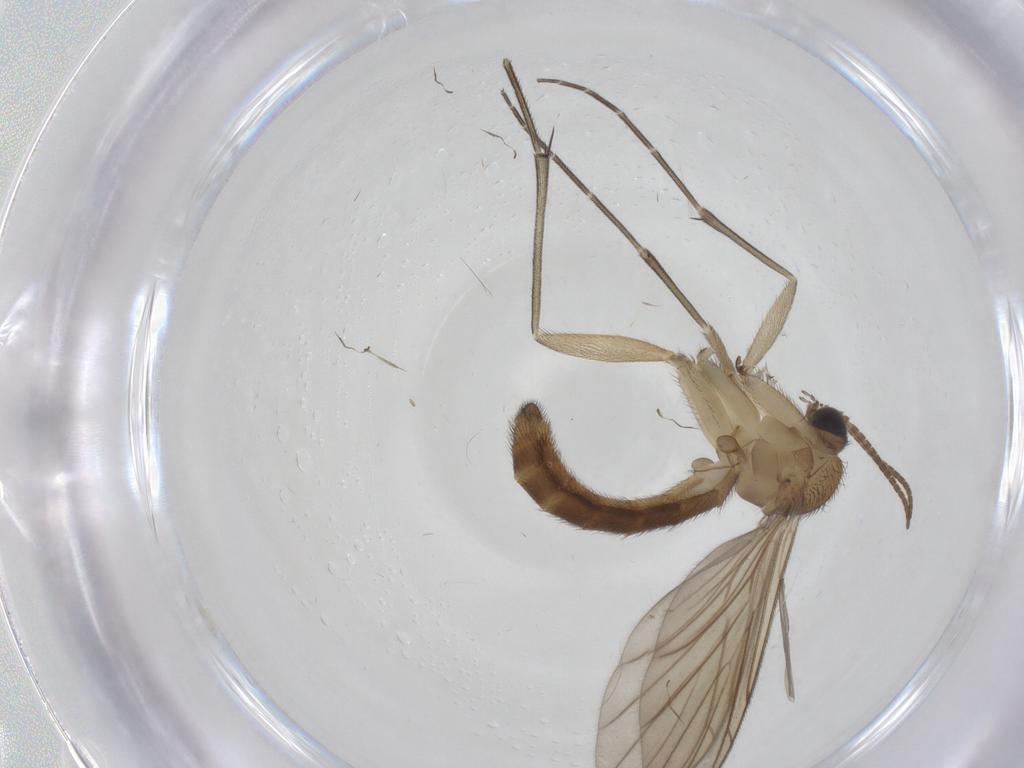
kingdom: Animalia
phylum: Arthropoda
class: Insecta
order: Diptera
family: Keroplatidae
